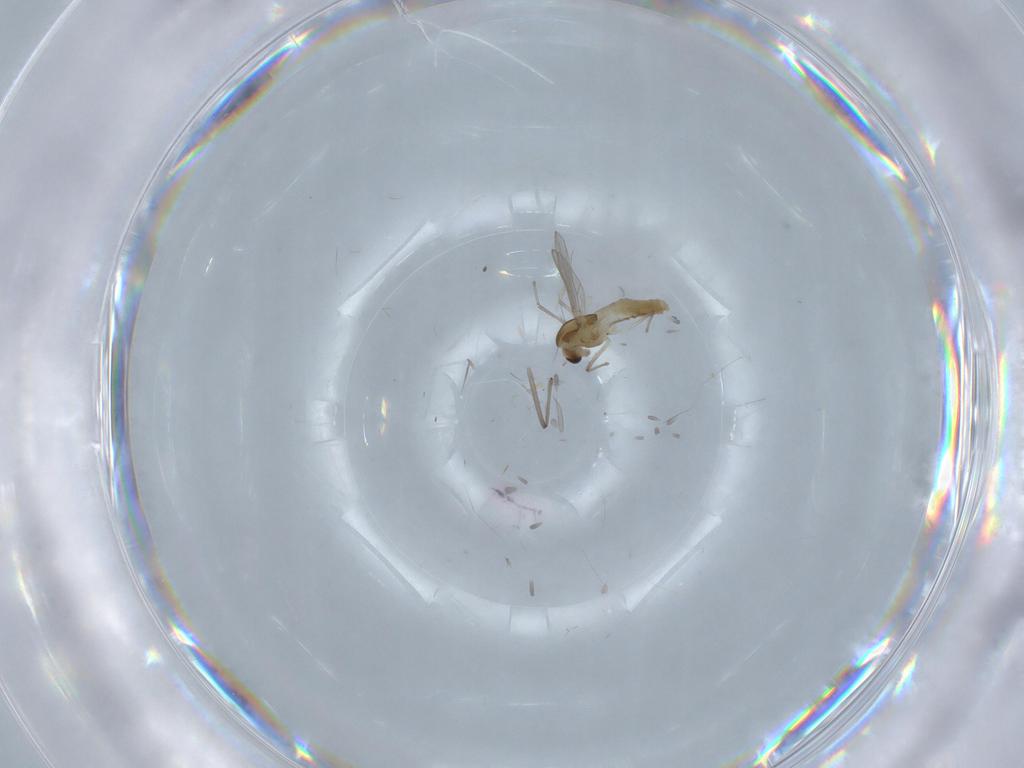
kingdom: Animalia
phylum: Arthropoda
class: Insecta
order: Diptera
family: Chironomidae
